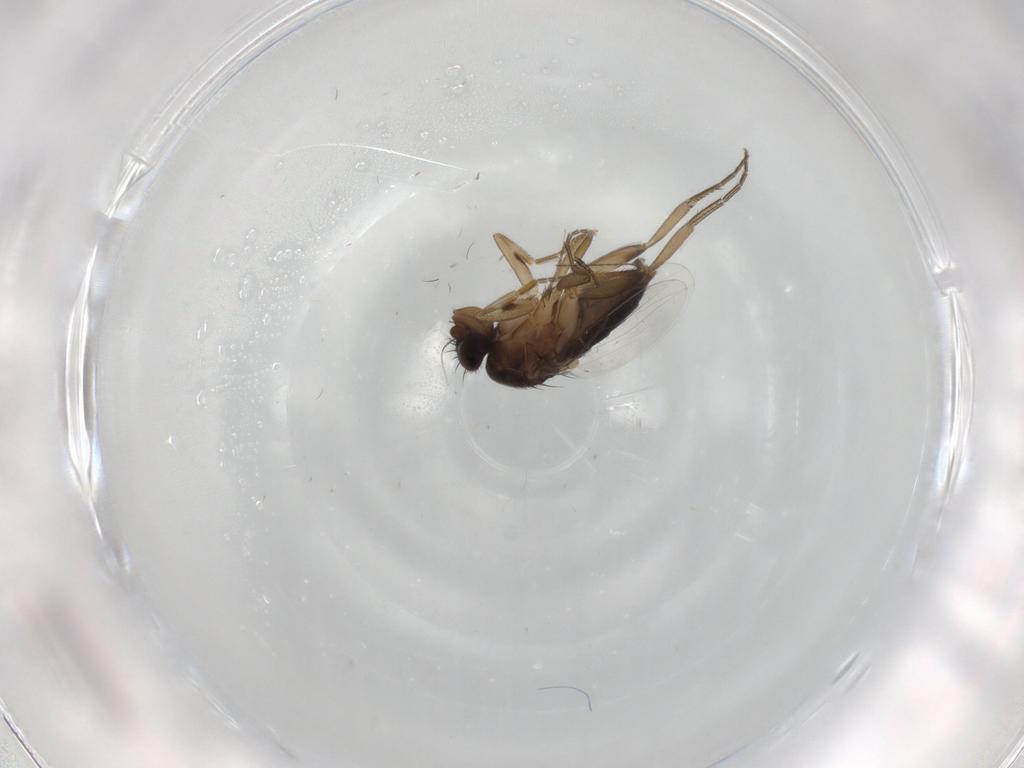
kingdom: Animalia
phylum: Arthropoda
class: Insecta
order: Diptera
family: Phoridae
